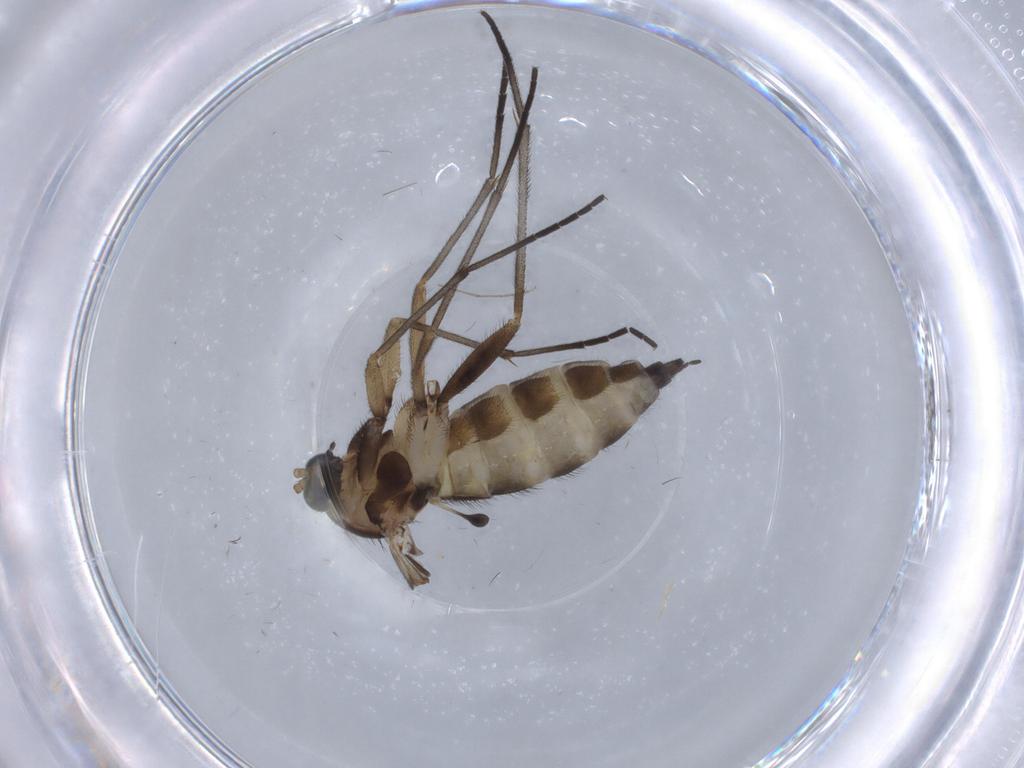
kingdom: Animalia
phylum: Arthropoda
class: Insecta
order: Diptera
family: Sciaridae
